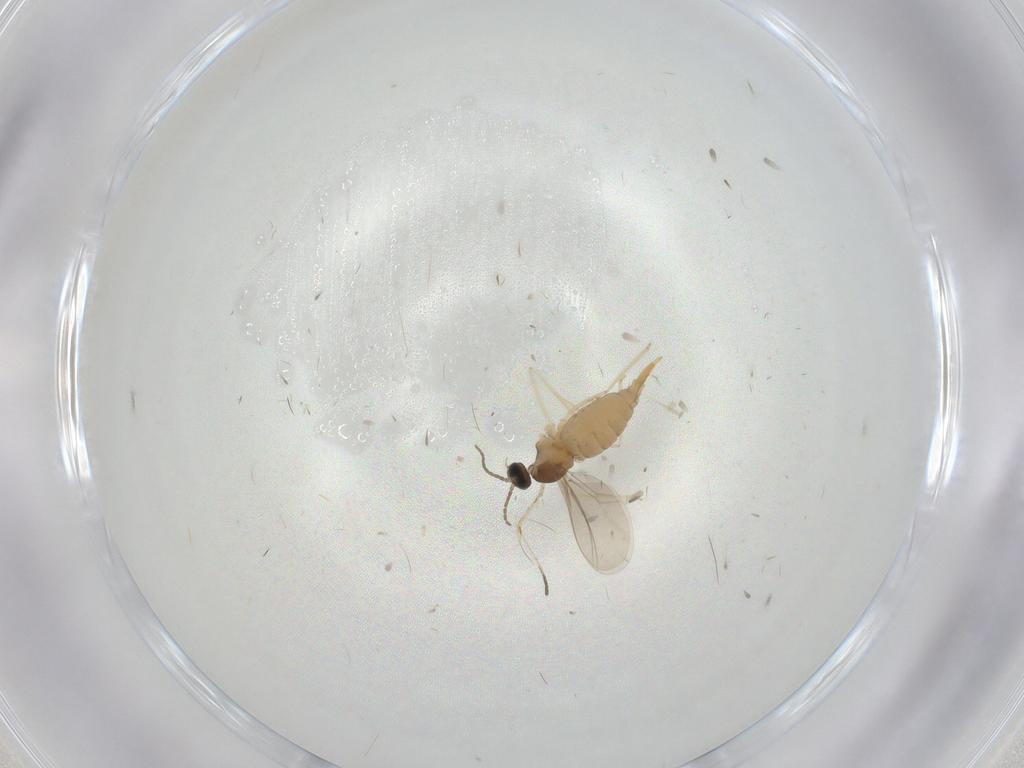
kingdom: Animalia
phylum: Arthropoda
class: Insecta
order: Diptera
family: Cecidomyiidae
